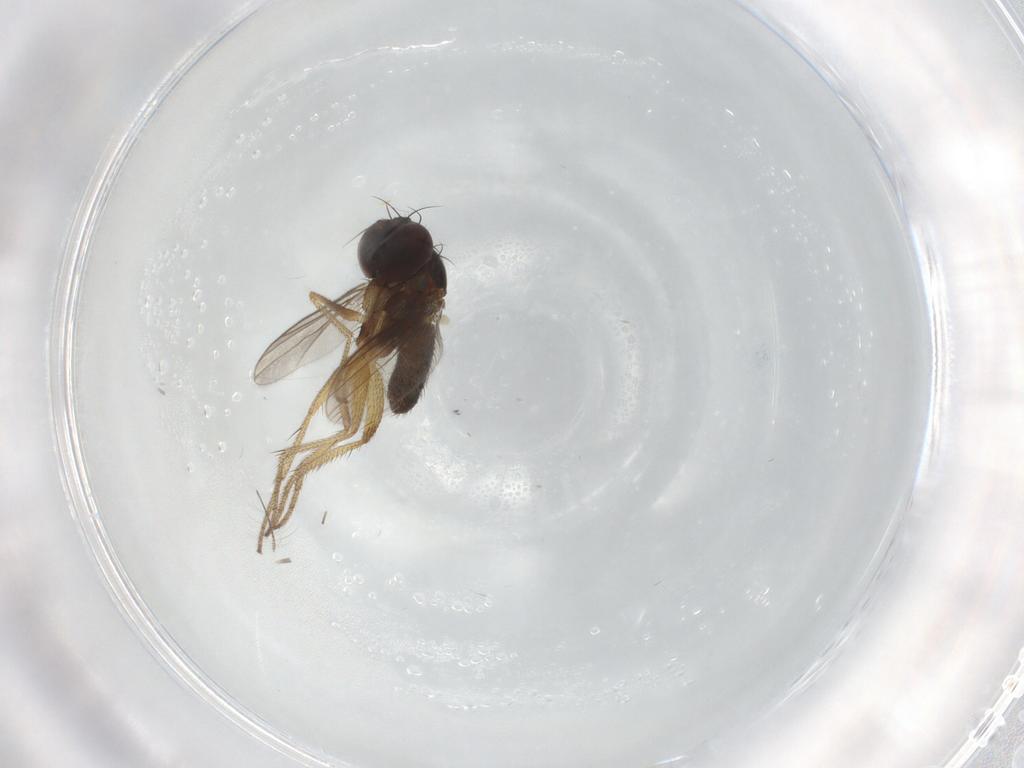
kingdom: Animalia
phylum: Arthropoda
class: Insecta
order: Diptera
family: Dolichopodidae
